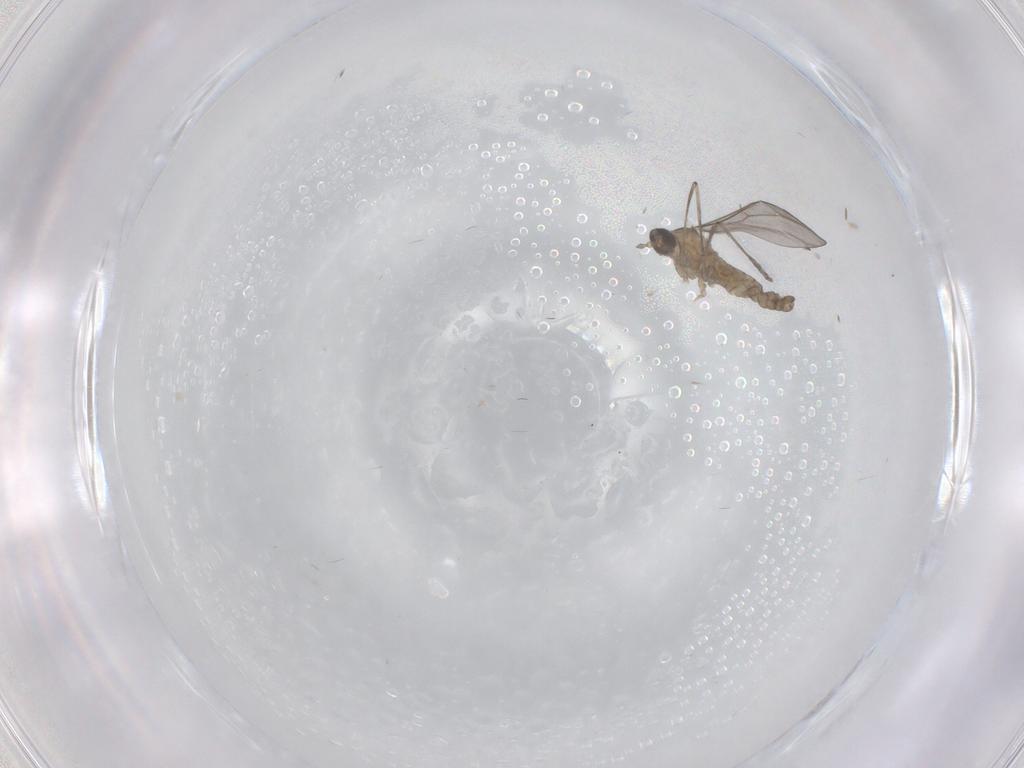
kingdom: Animalia
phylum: Arthropoda
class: Insecta
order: Diptera
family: Cecidomyiidae
